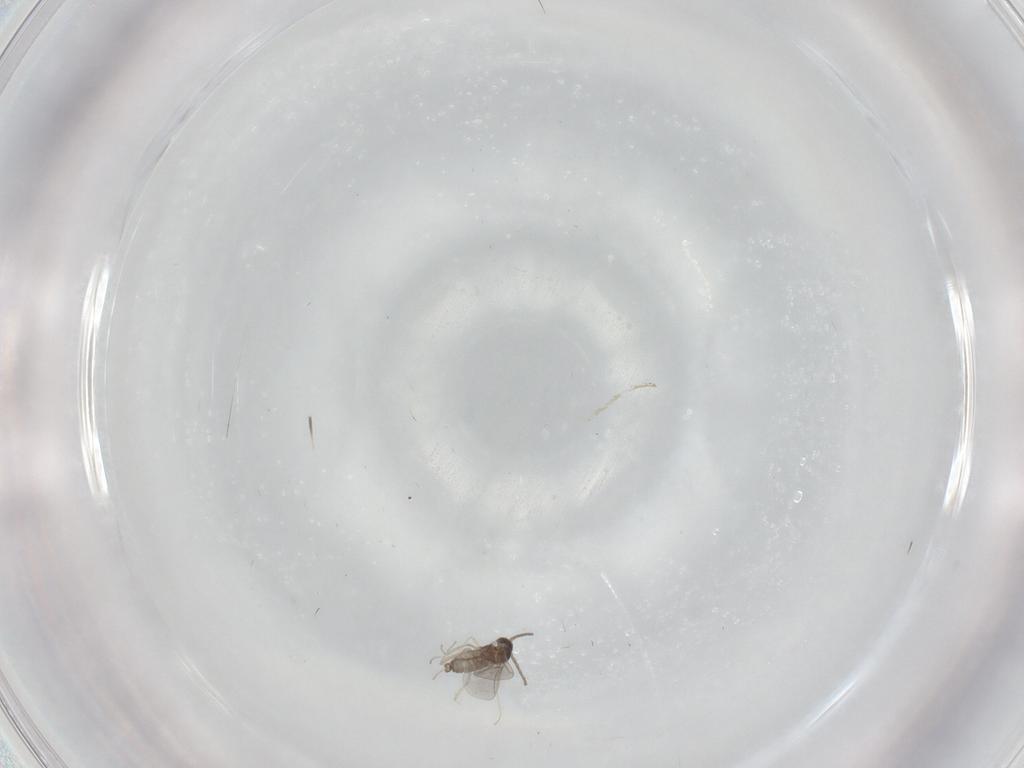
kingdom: Animalia
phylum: Arthropoda
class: Insecta
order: Diptera
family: Cecidomyiidae
